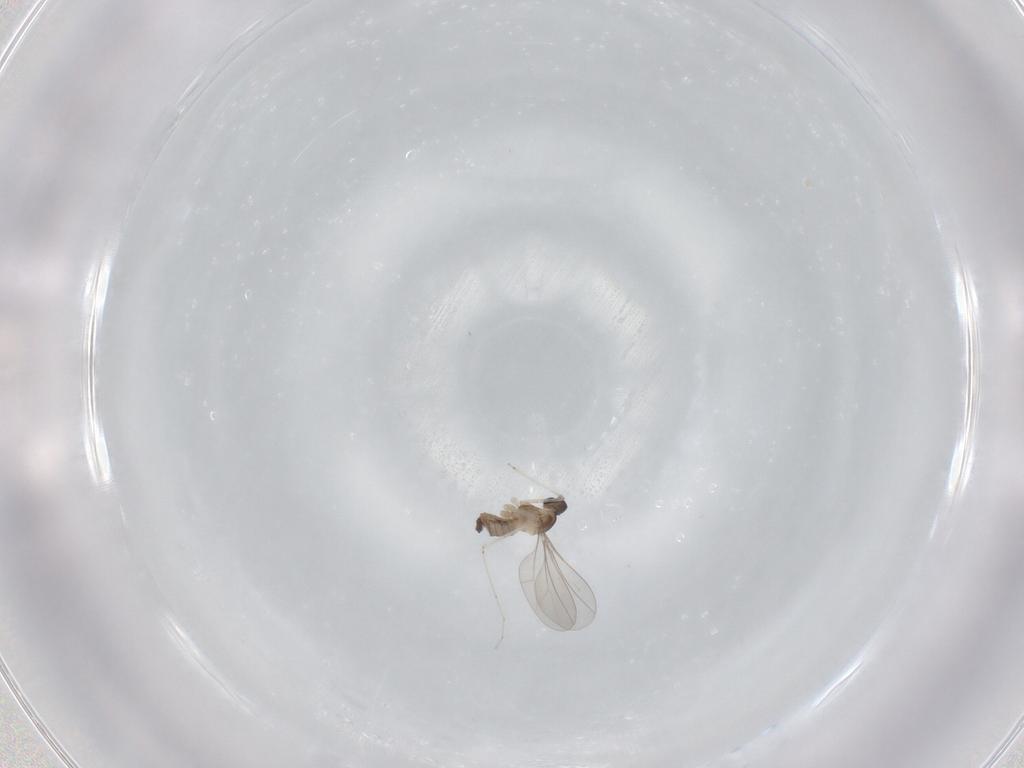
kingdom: Animalia
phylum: Arthropoda
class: Insecta
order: Diptera
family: Cecidomyiidae
